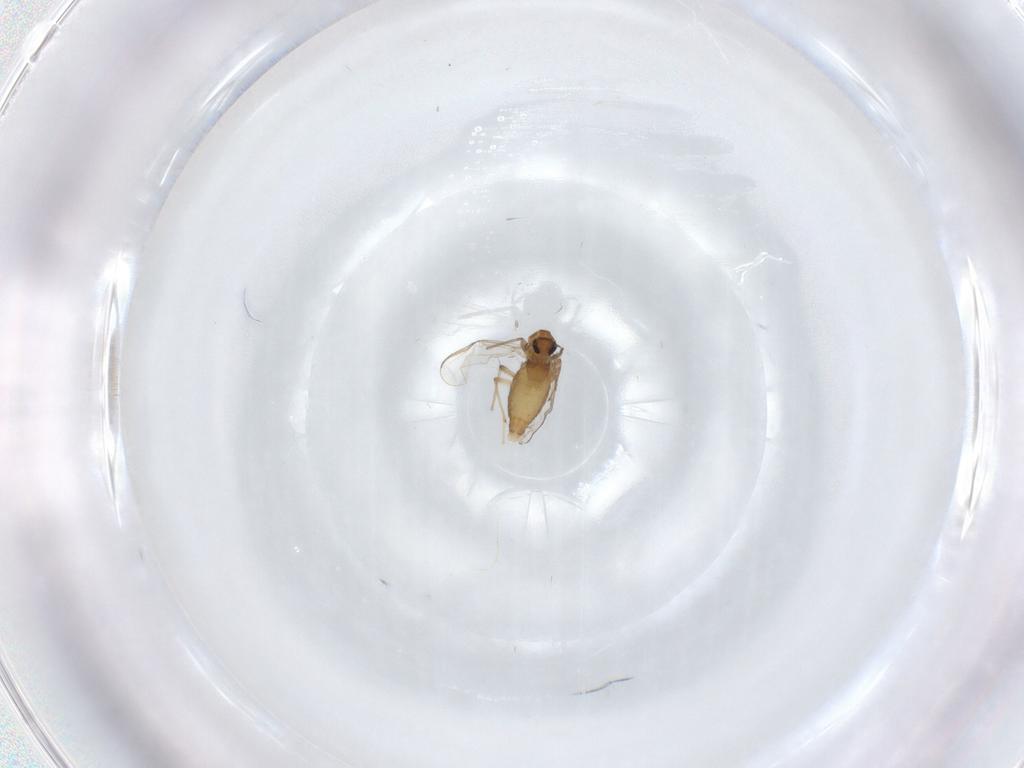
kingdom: Animalia
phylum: Arthropoda
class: Insecta
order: Diptera
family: Chironomidae
